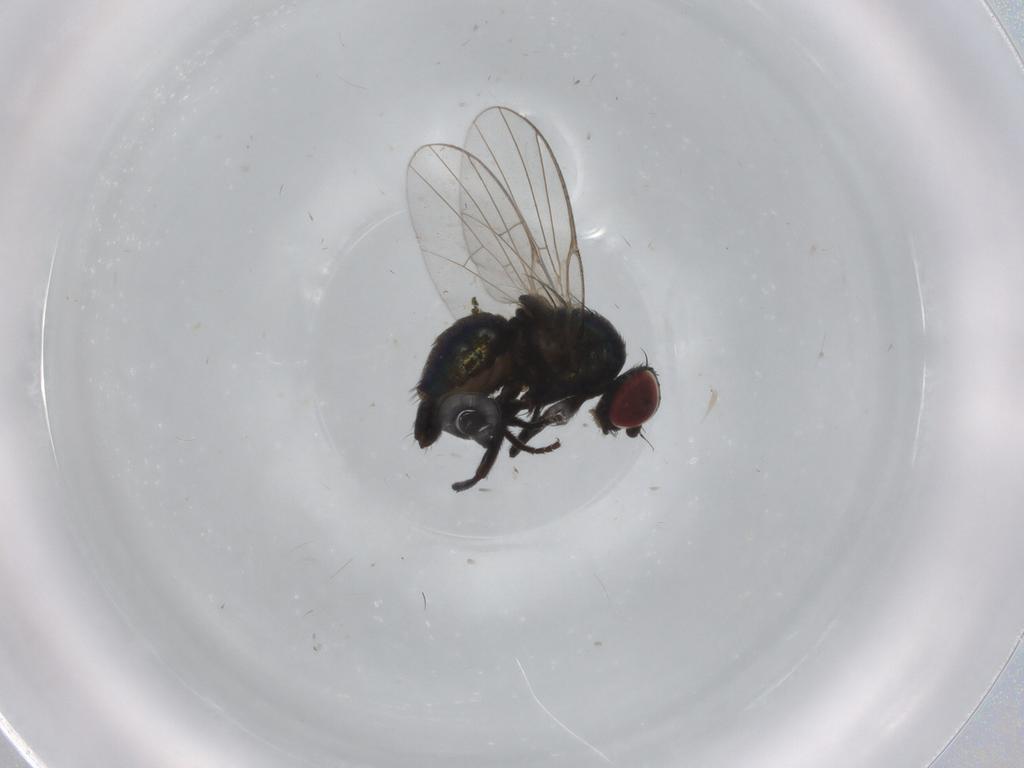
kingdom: Animalia
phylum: Arthropoda
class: Insecta
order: Diptera
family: Agromyzidae
